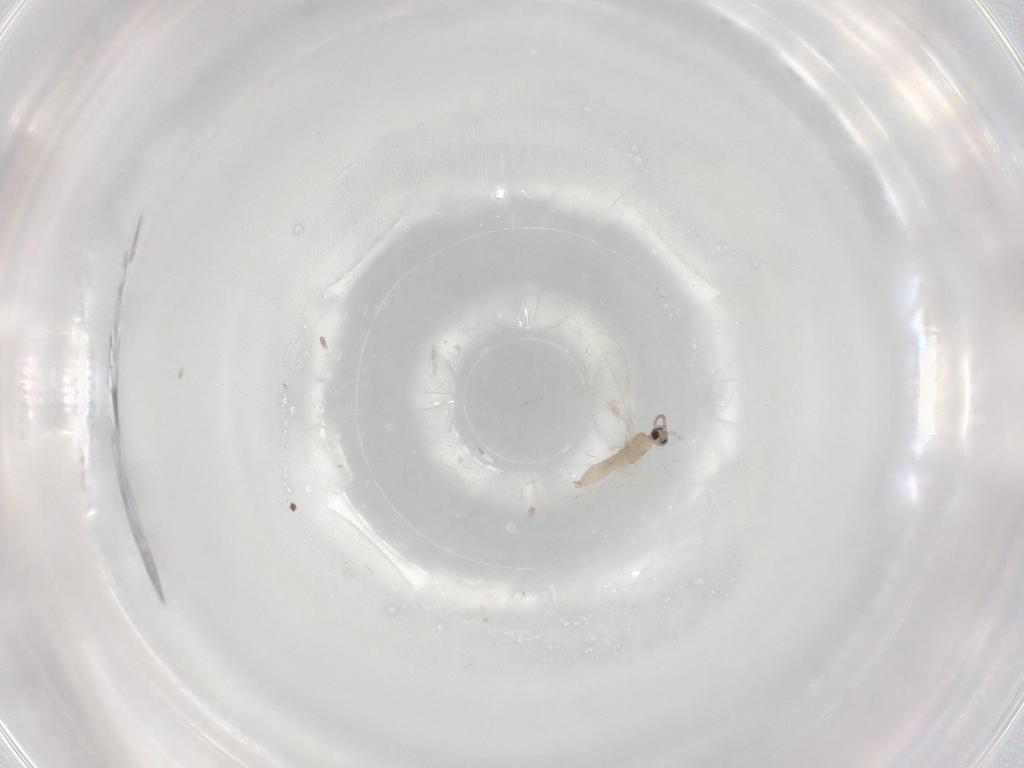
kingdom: Animalia
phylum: Arthropoda
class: Insecta
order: Diptera
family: Cecidomyiidae
